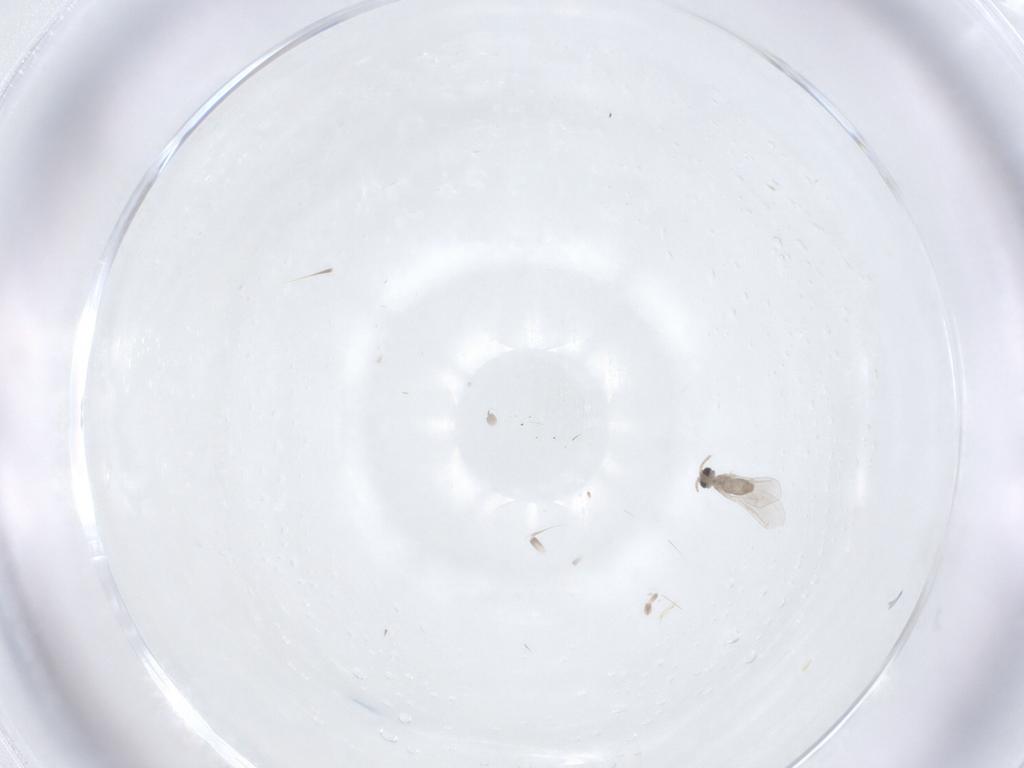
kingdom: Animalia
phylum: Arthropoda
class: Insecta
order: Diptera
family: Cecidomyiidae
